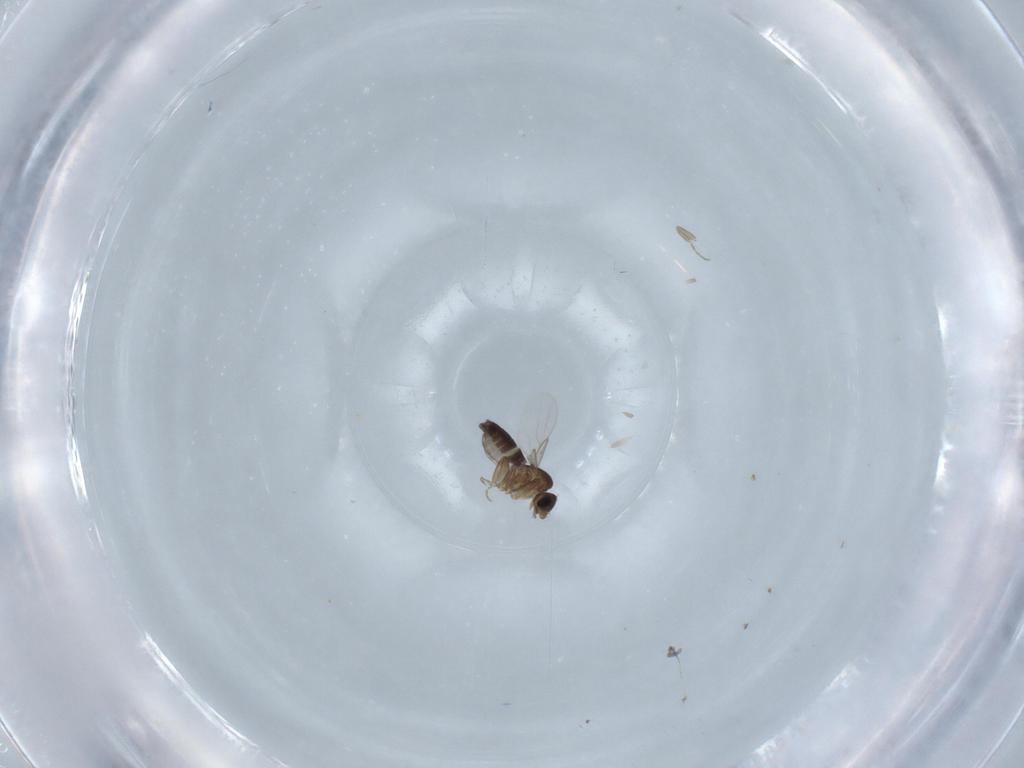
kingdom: Animalia
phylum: Arthropoda
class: Insecta
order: Diptera
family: Phoridae
